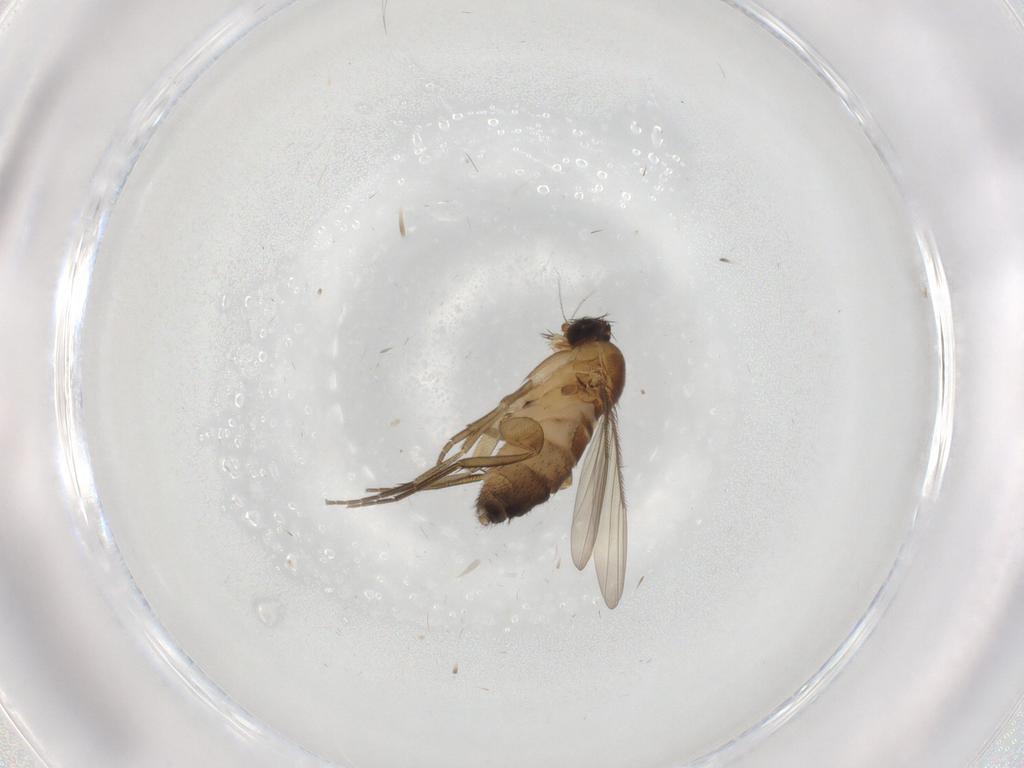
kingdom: Animalia
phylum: Arthropoda
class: Insecta
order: Diptera
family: Phoridae
